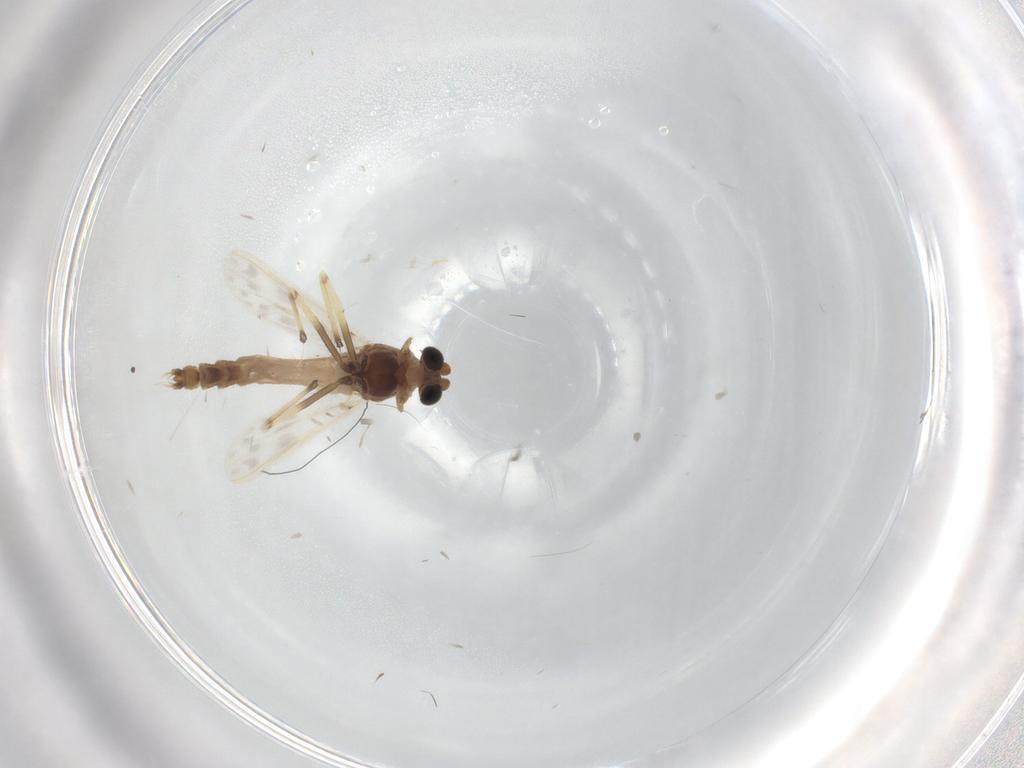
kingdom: Animalia
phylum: Arthropoda
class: Insecta
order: Diptera
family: Chironomidae
